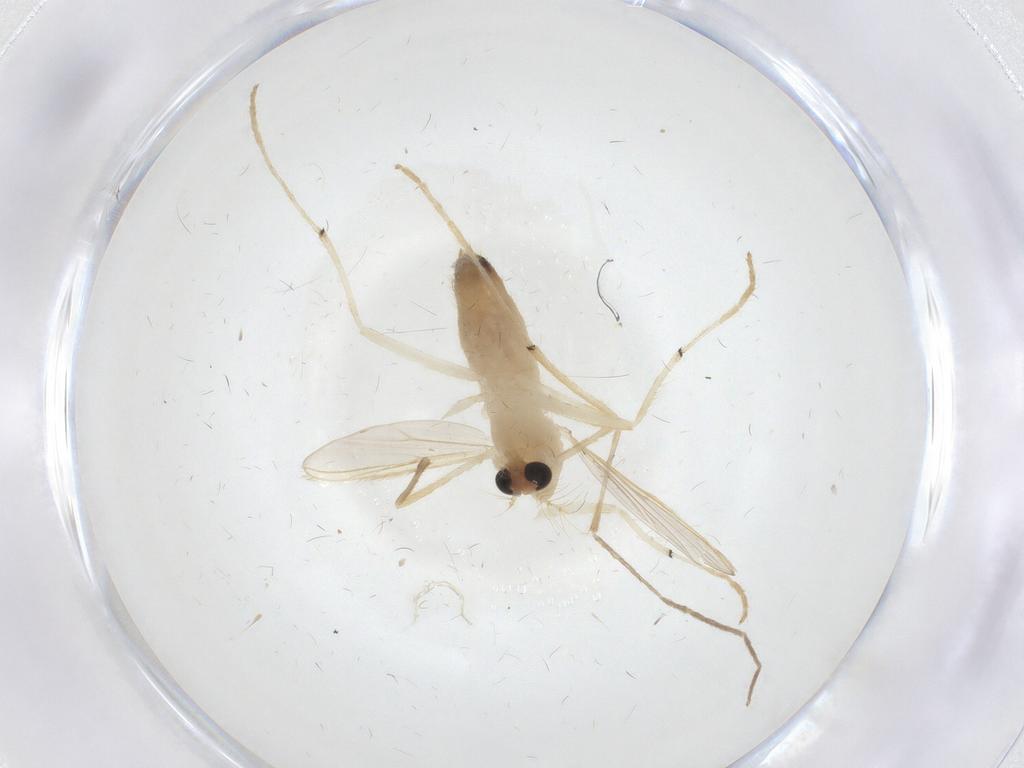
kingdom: Animalia
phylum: Arthropoda
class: Insecta
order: Diptera
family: Chironomidae
